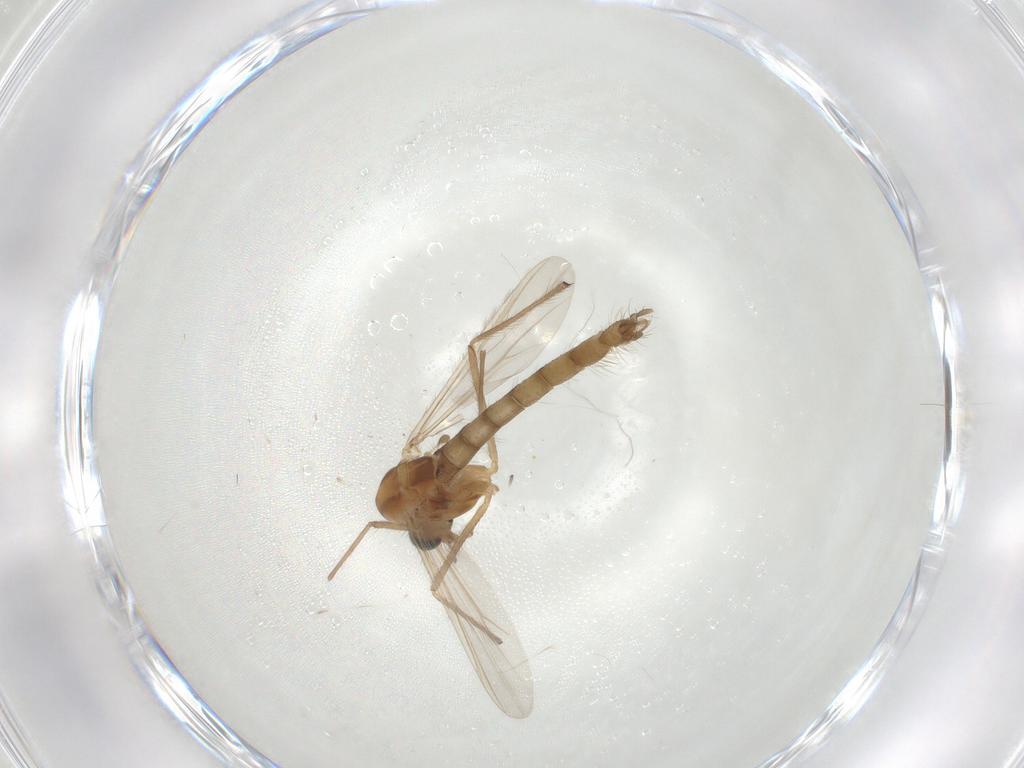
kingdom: Animalia
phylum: Arthropoda
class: Insecta
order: Diptera
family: Chironomidae
